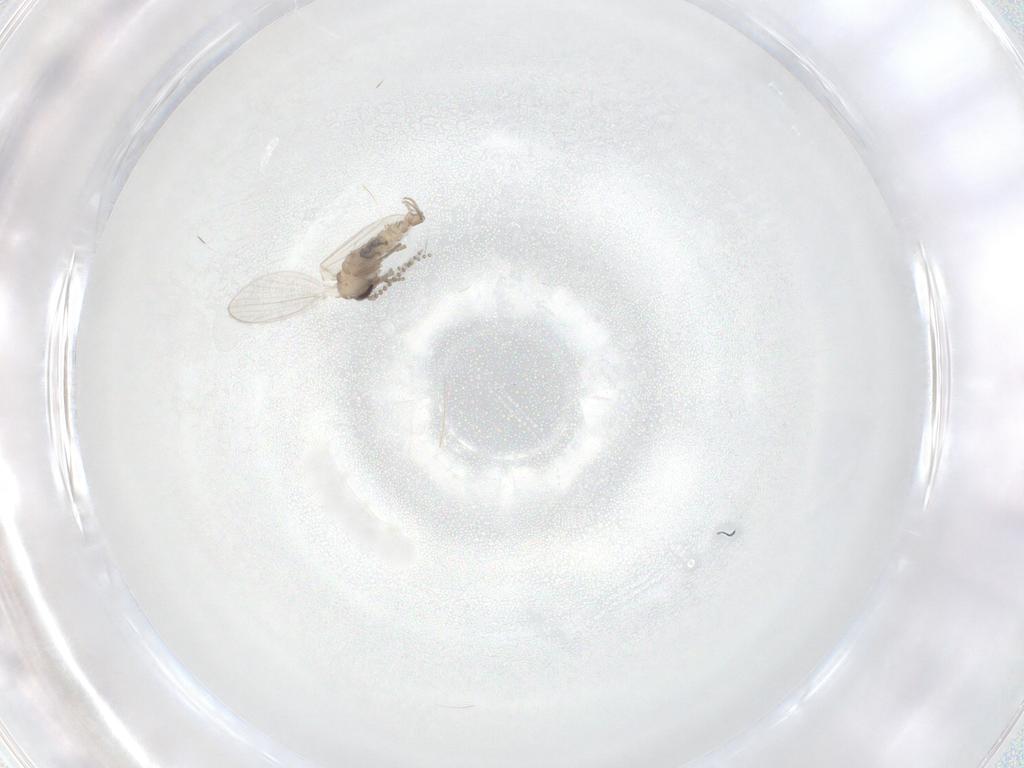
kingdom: Animalia
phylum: Arthropoda
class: Insecta
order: Diptera
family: Psychodidae
